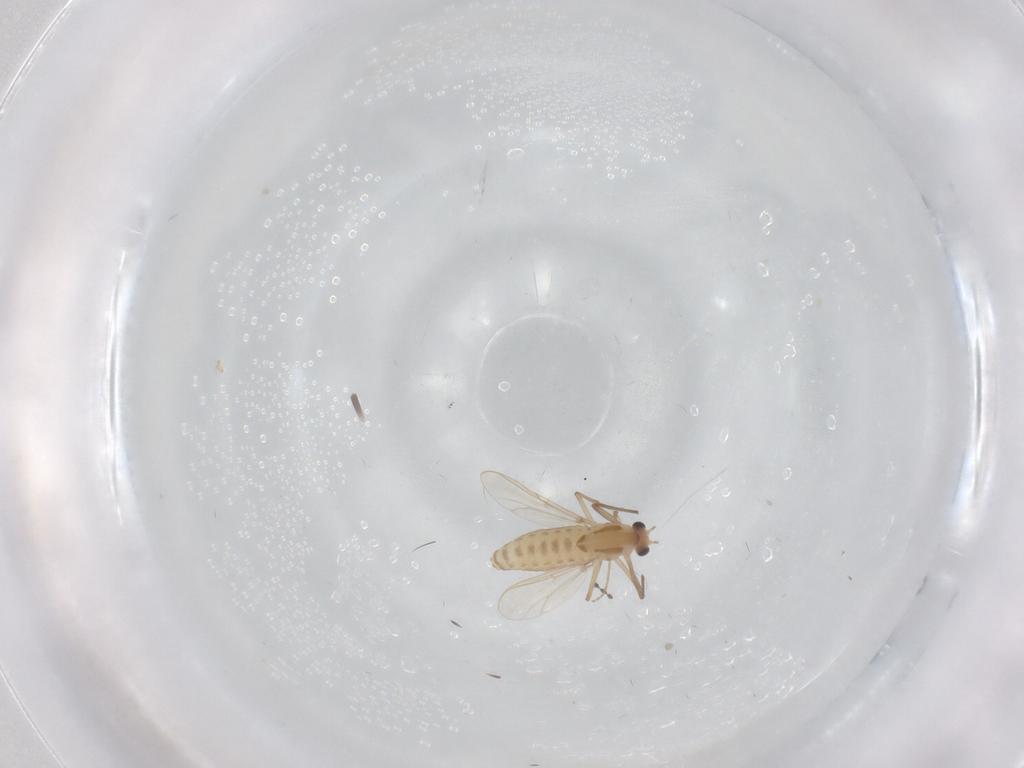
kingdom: Animalia
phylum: Arthropoda
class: Insecta
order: Diptera
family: Chironomidae
